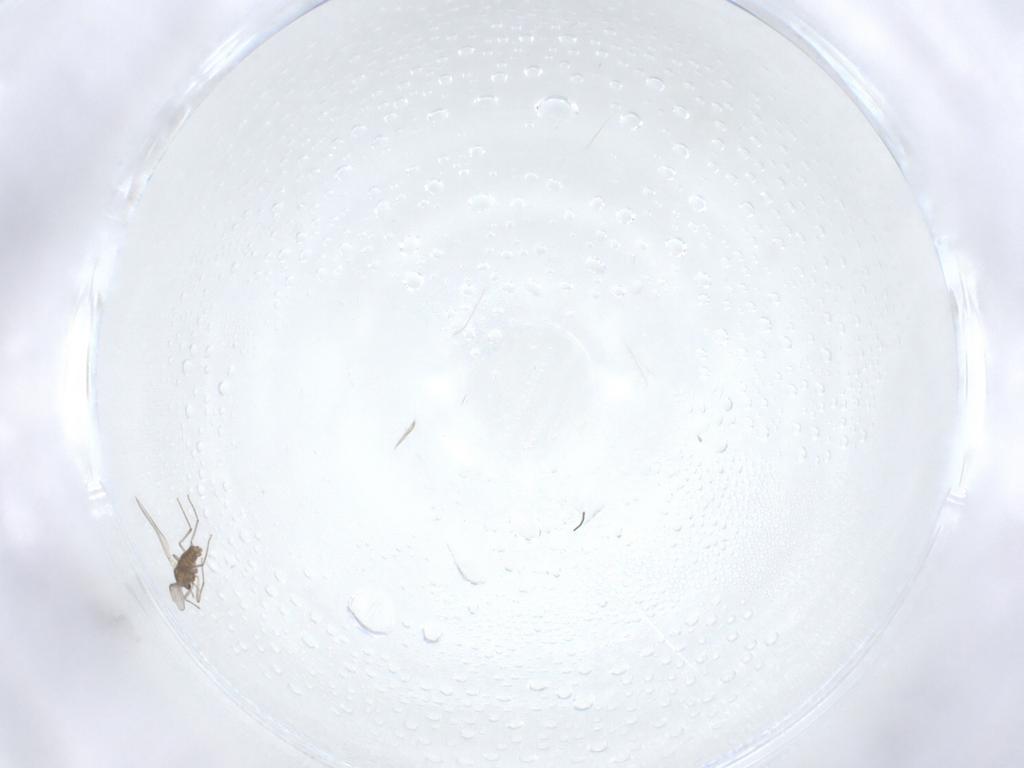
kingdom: Animalia
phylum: Arthropoda
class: Insecta
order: Diptera
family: Chironomidae
